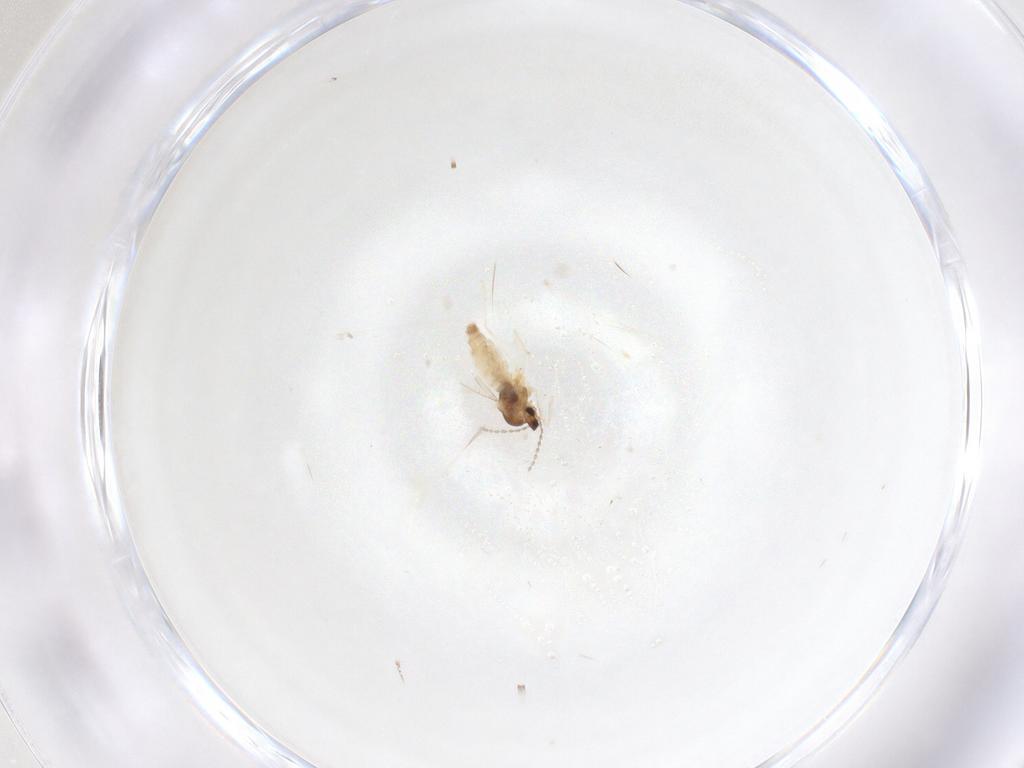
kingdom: Animalia
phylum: Arthropoda
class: Insecta
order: Diptera
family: Cecidomyiidae
